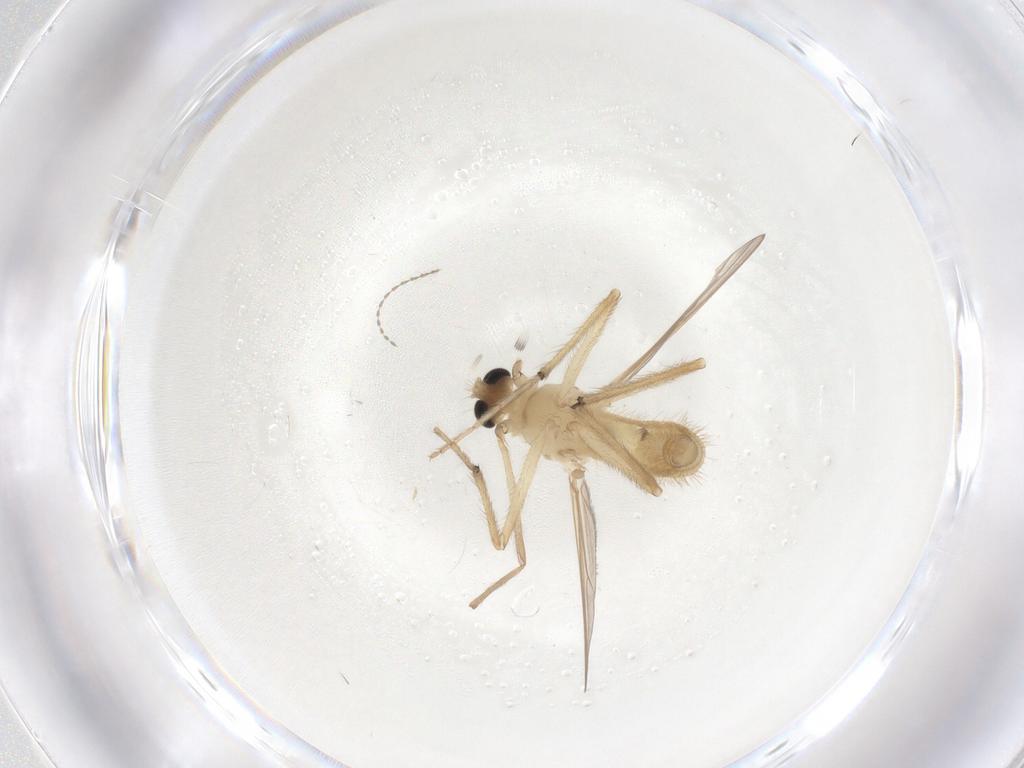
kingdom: Animalia
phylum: Arthropoda
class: Insecta
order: Diptera
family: Chironomidae
